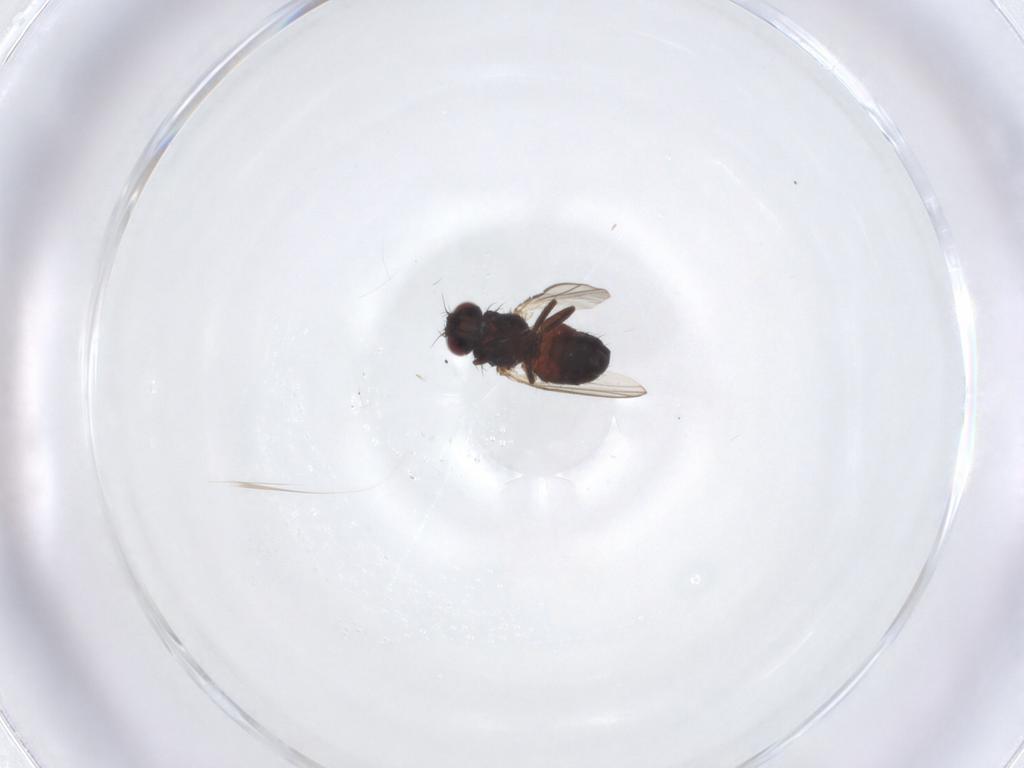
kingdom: Animalia
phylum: Arthropoda
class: Insecta
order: Diptera
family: Carnidae
